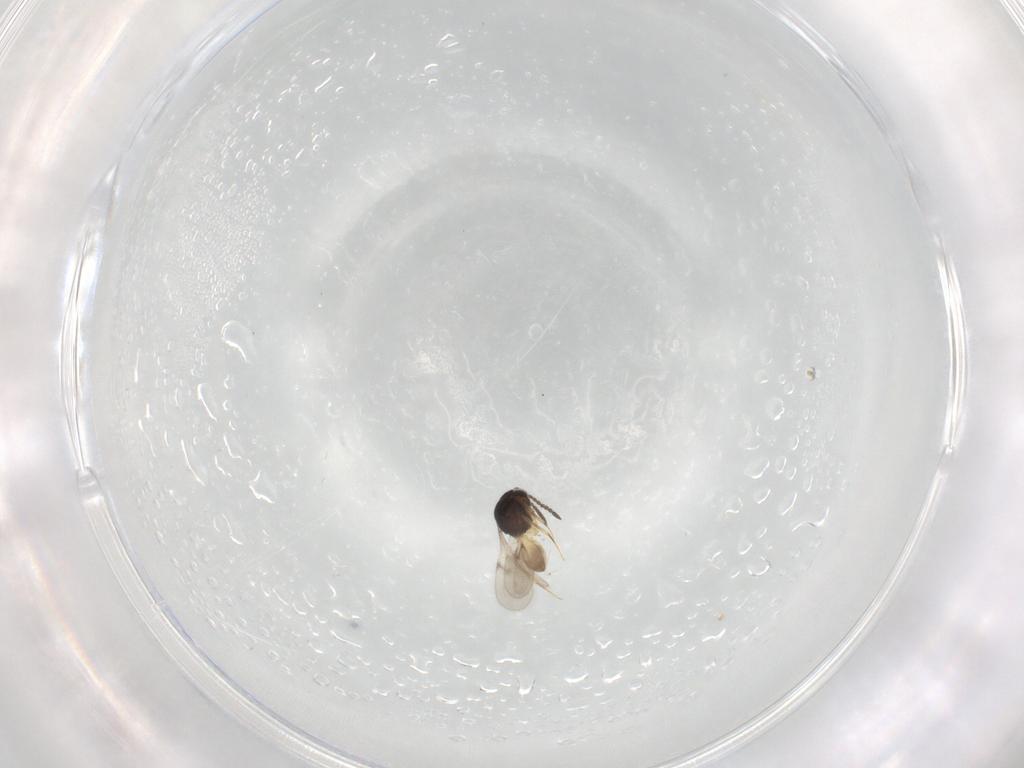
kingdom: Animalia
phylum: Arthropoda
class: Insecta
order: Hymenoptera
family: Scelionidae
